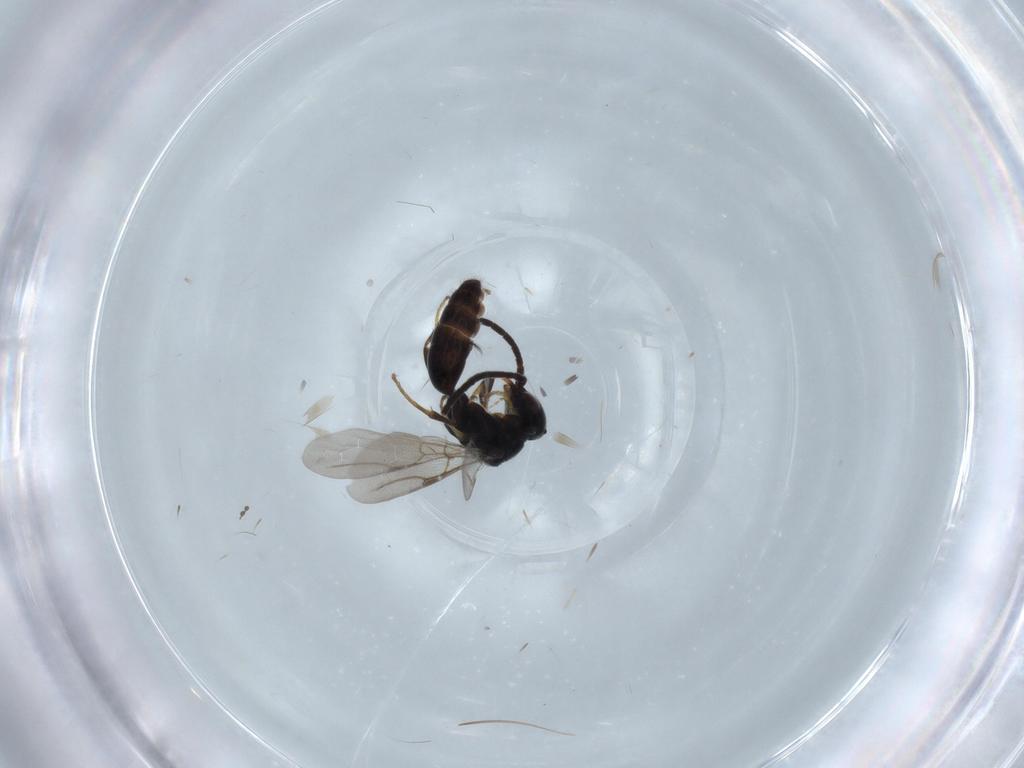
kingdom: Animalia
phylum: Arthropoda
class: Insecta
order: Hymenoptera
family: Bethylidae
